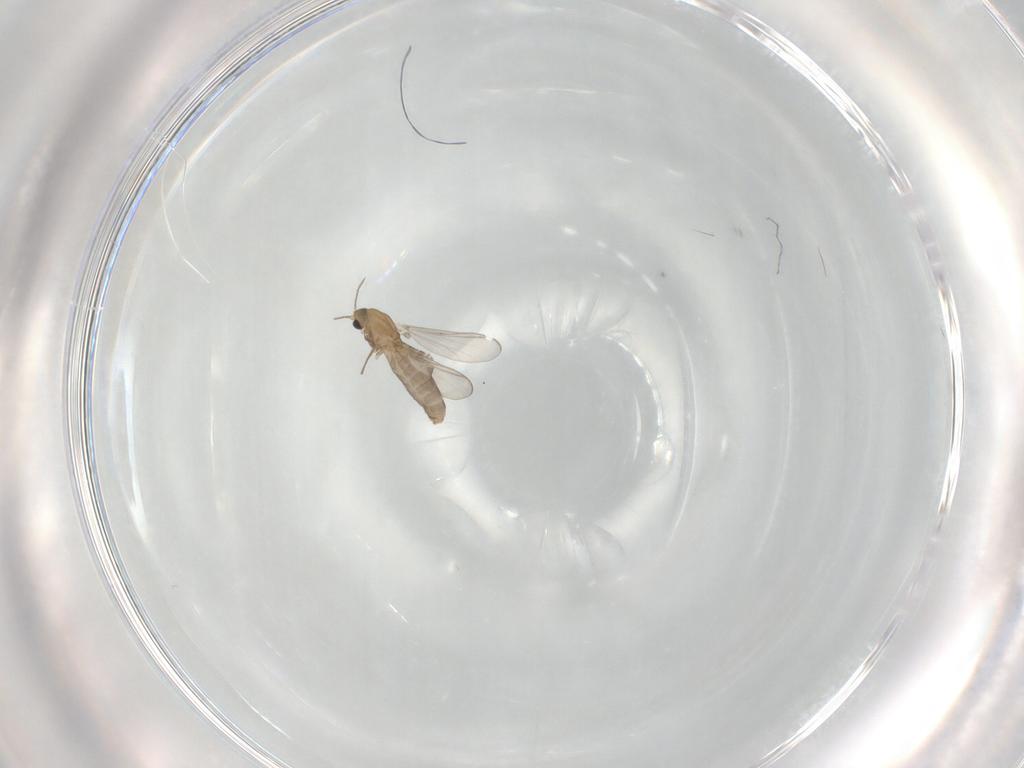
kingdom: Animalia
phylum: Arthropoda
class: Insecta
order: Diptera
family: Chironomidae
